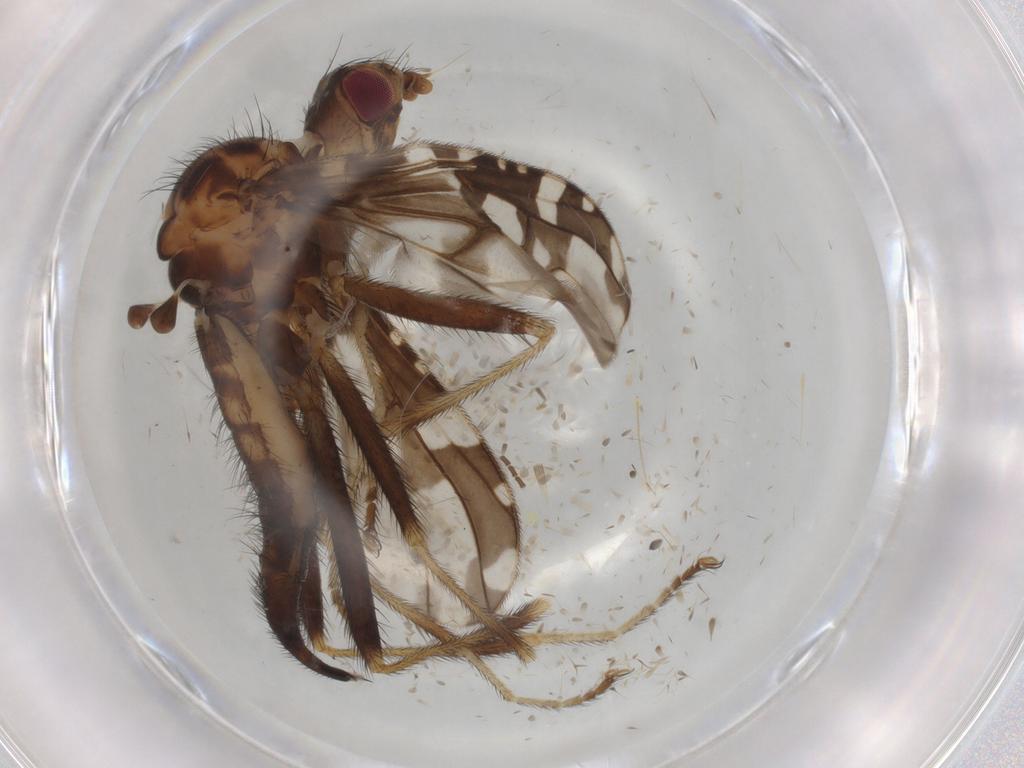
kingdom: Animalia
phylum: Arthropoda
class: Insecta
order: Diptera
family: Pyrgotidae
